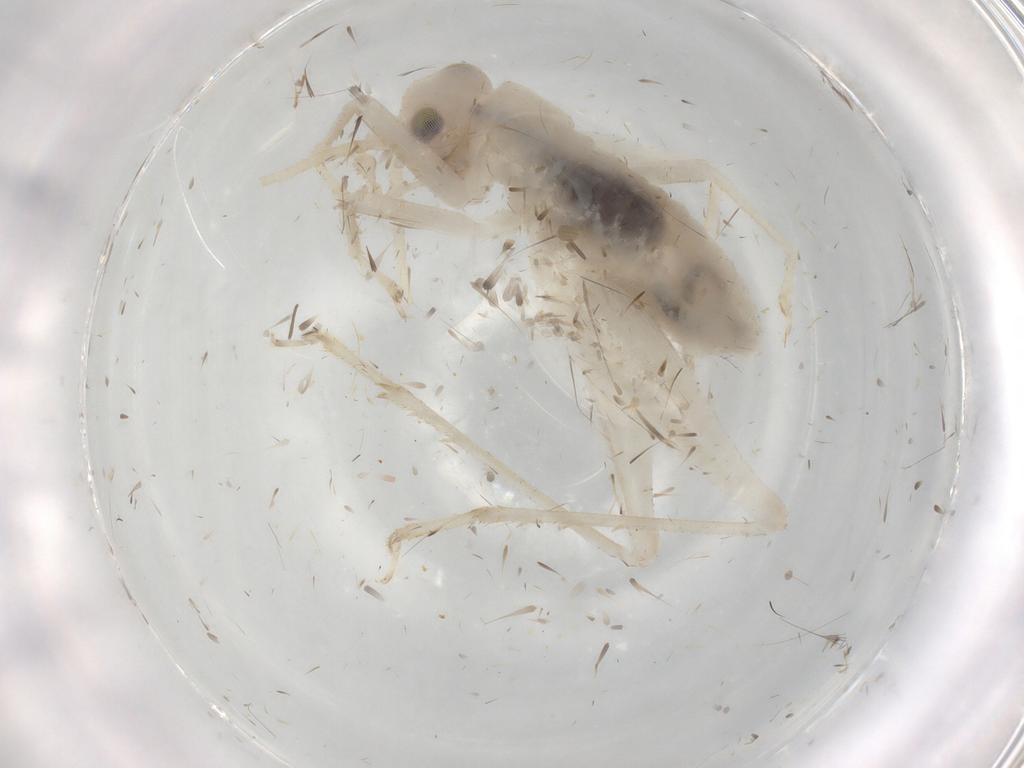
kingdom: Animalia
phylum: Arthropoda
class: Insecta
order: Orthoptera
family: Trigonidiidae
